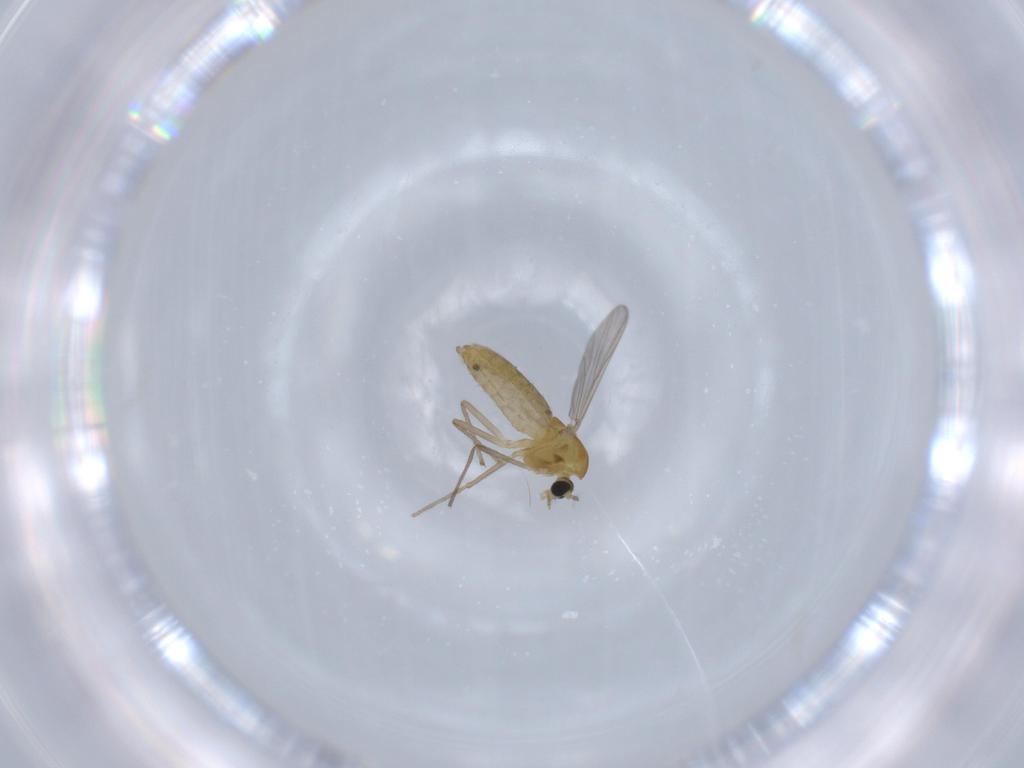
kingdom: Animalia
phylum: Arthropoda
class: Insecta
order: Diptera
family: Chironomidae
